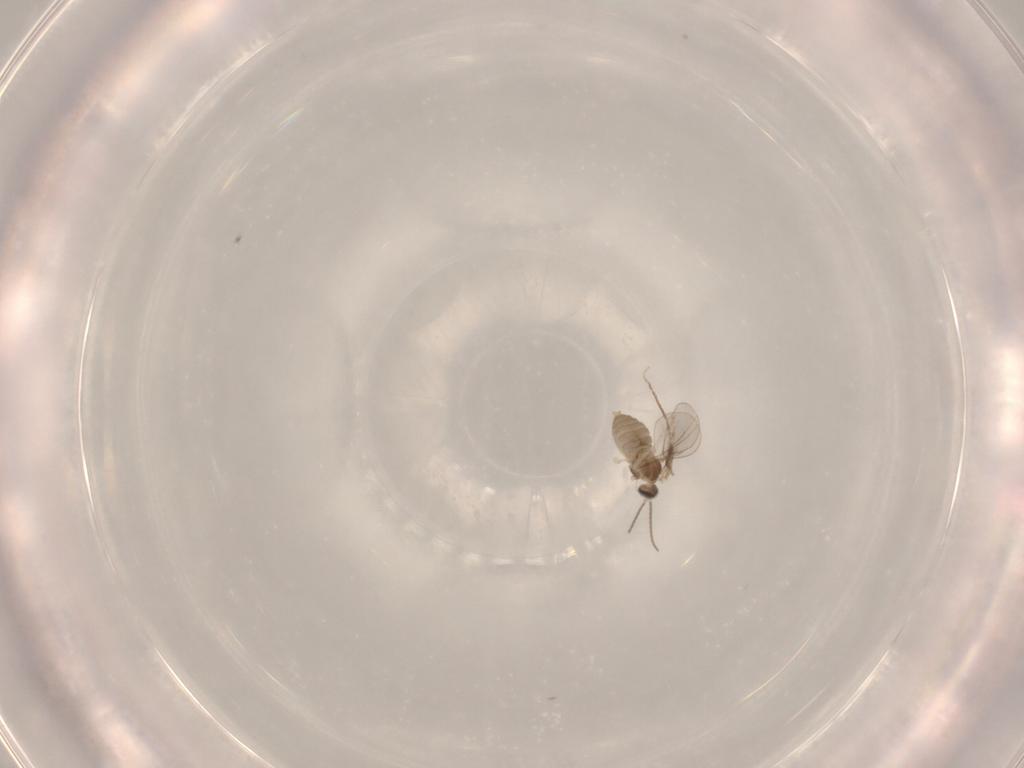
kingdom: Animalia
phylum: Arthropoda
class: Insecta
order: Diptera
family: Cecidomyiidae
